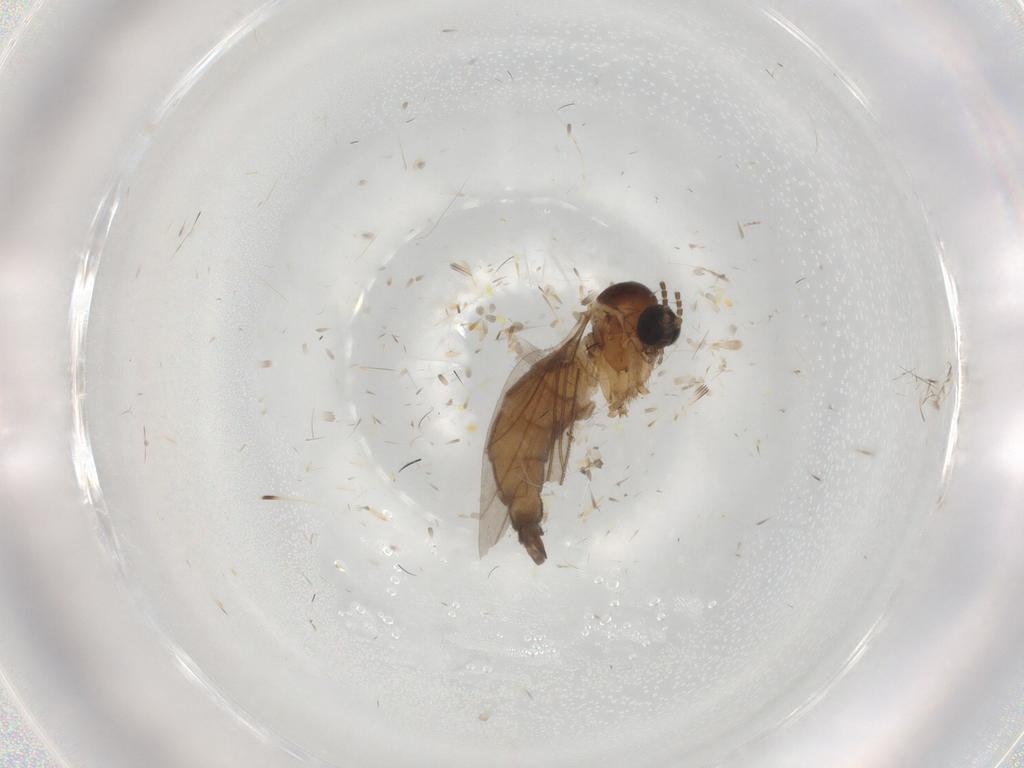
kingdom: Animalia
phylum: Arthropoda
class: Insecta
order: Diptera
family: Sciaridae
